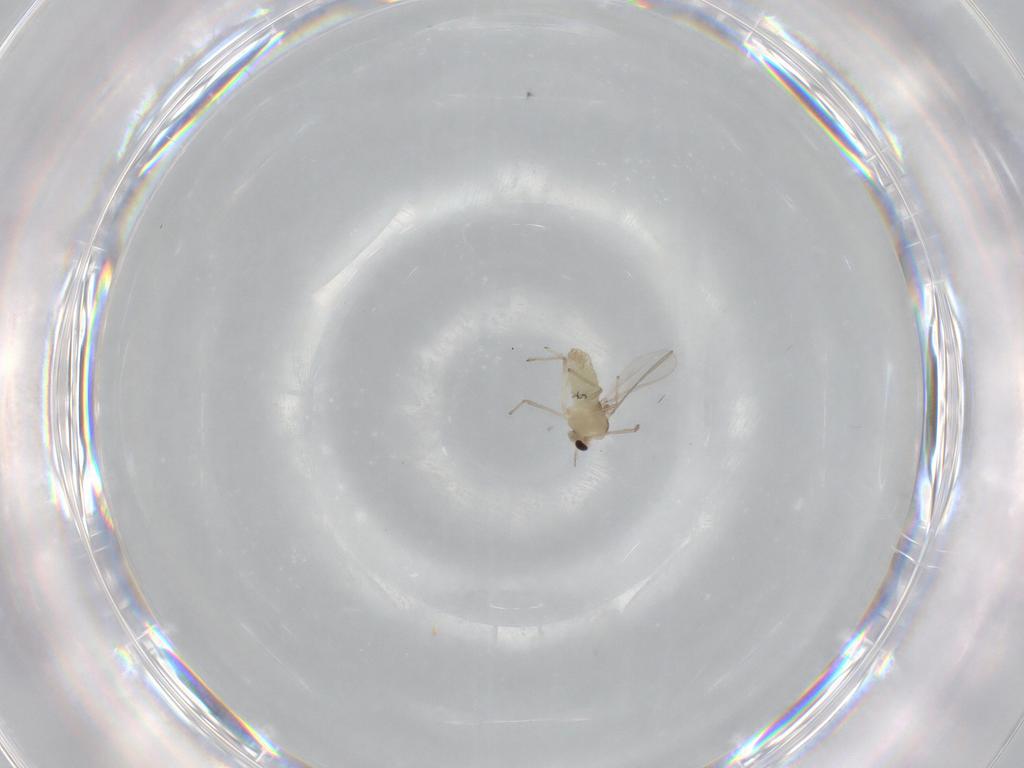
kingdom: Animalia
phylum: Arthropoda
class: Insecta
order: Diptera
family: Chironomidae
